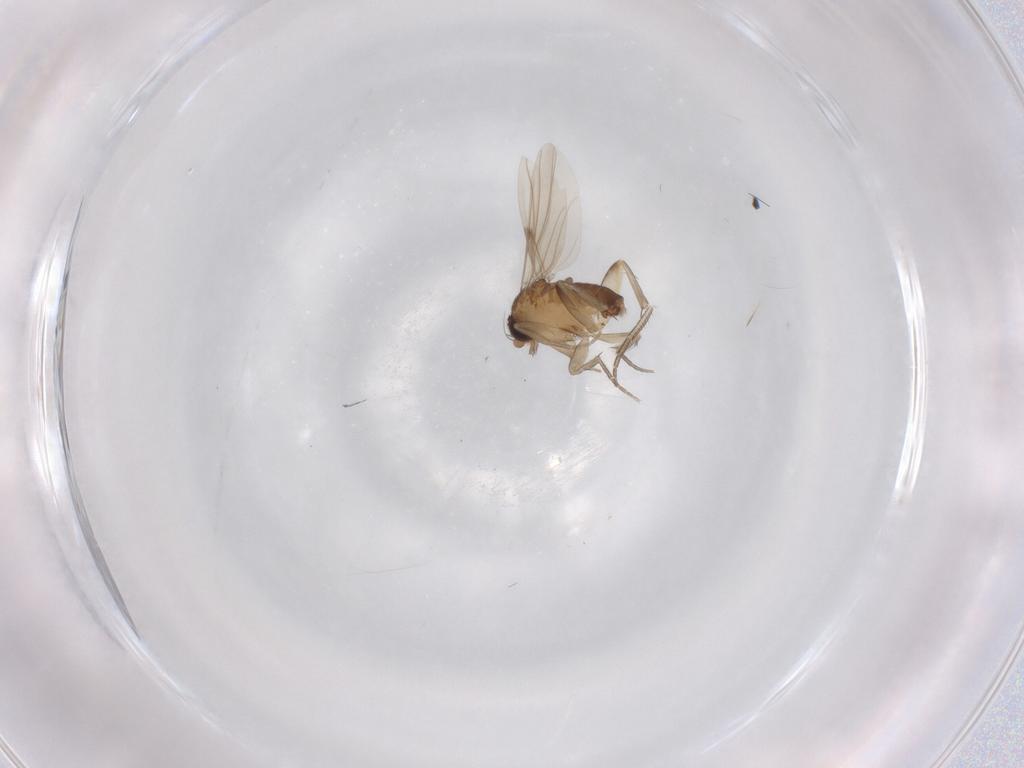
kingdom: Animalia
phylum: Arthropoda
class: Insecta
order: Diptera
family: Phoridae
